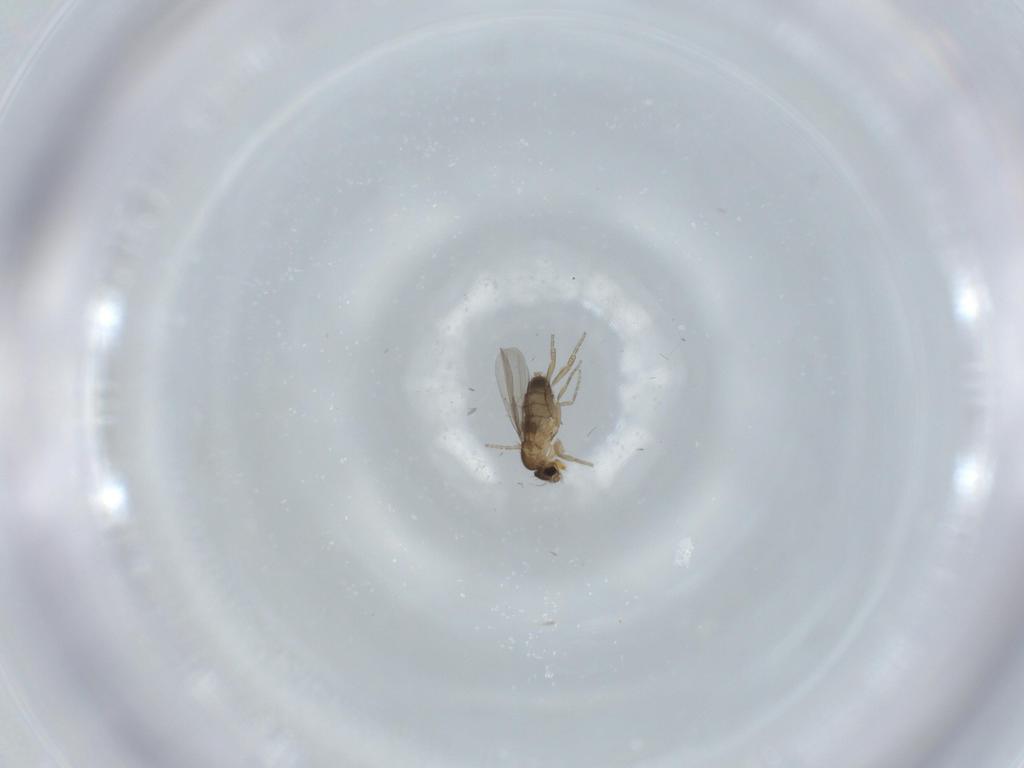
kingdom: Animalia
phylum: Arthropoda
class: Insecta
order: Diptera
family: Phoridae
